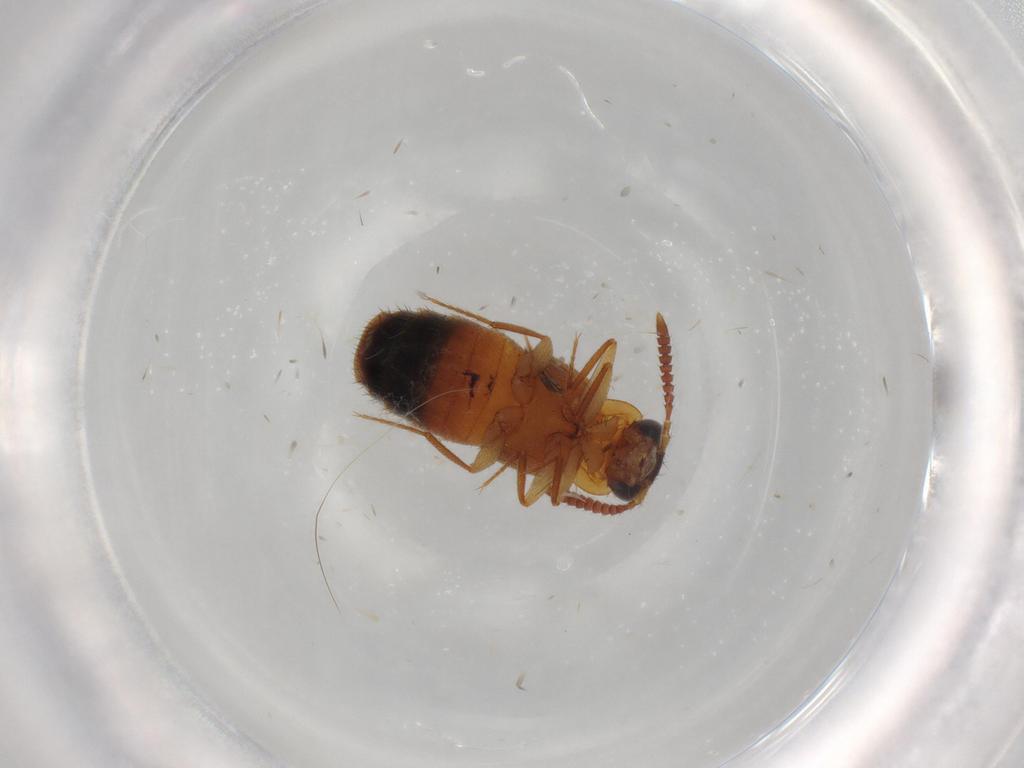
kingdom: Animalia
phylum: Arthropoda
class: Insecta
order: Coleoptera
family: Staphylinidae
